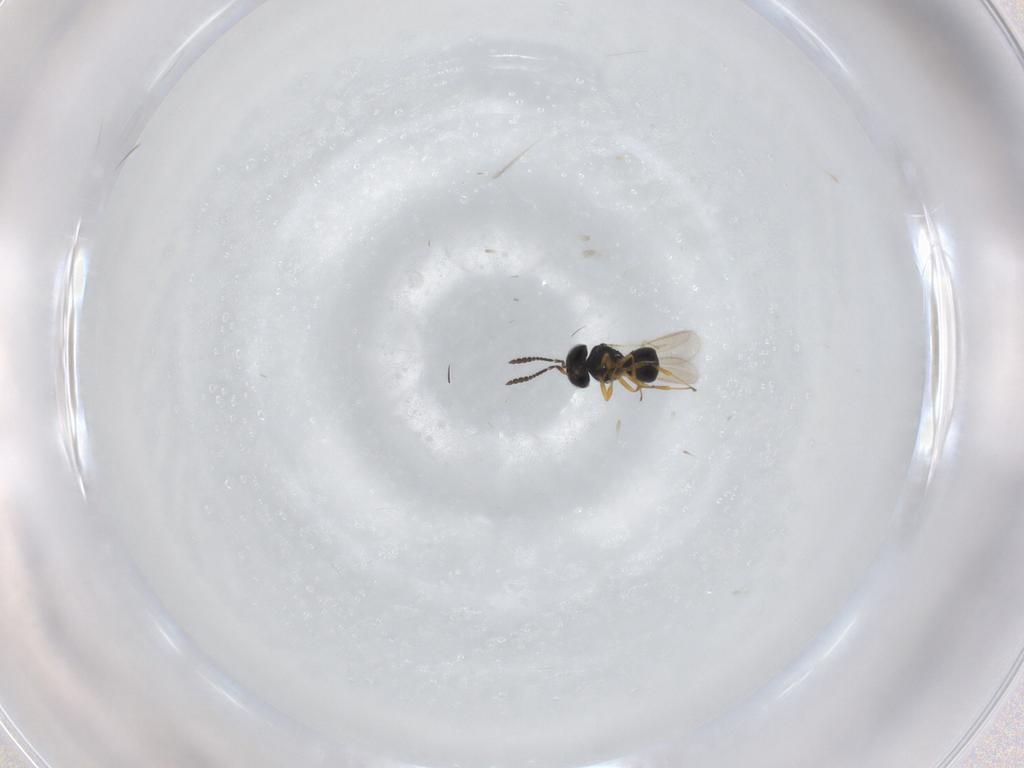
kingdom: Animalia
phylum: Arthropoda
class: Insecta
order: Hymenoptera
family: Scelionidae
